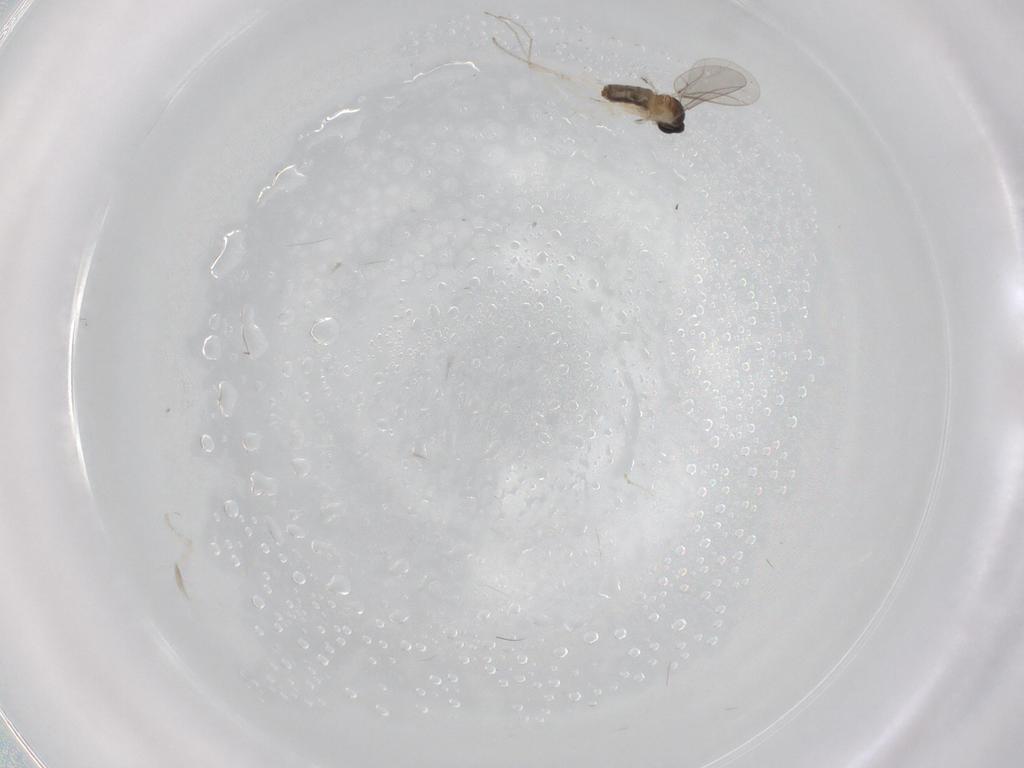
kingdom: Animalia
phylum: Arthropoda
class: Insecta
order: Diptera
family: Cecidomyiidae
